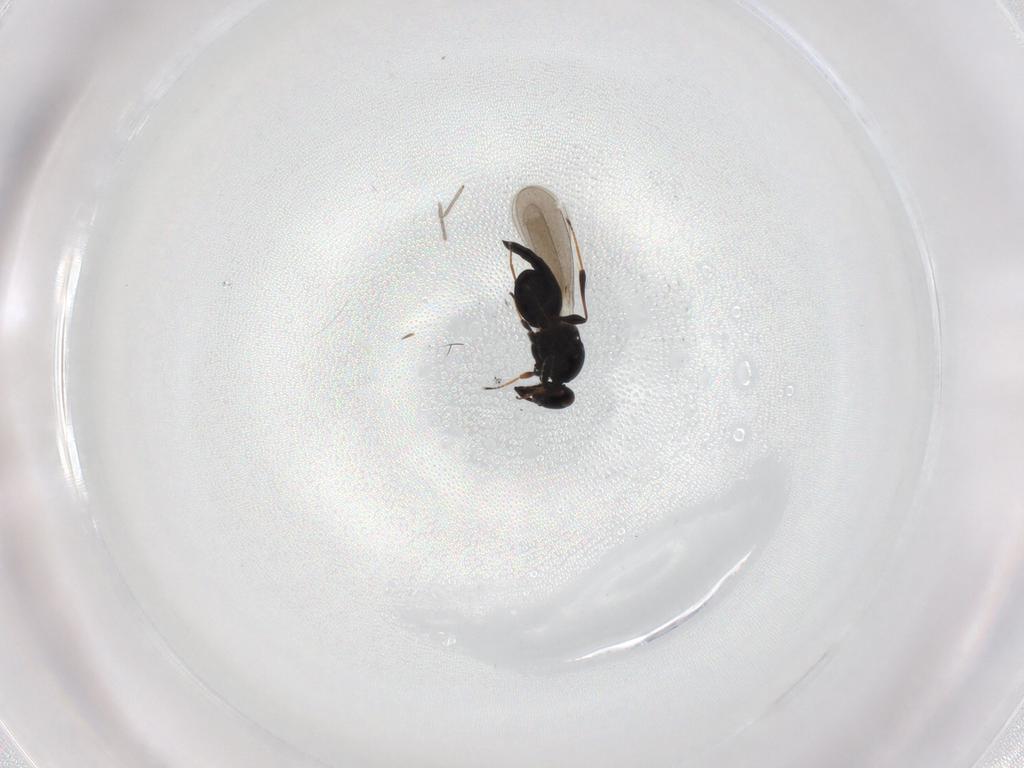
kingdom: Animalia
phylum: Arthropoda
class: Insecta
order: Hymenoptera
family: Platygastridae
